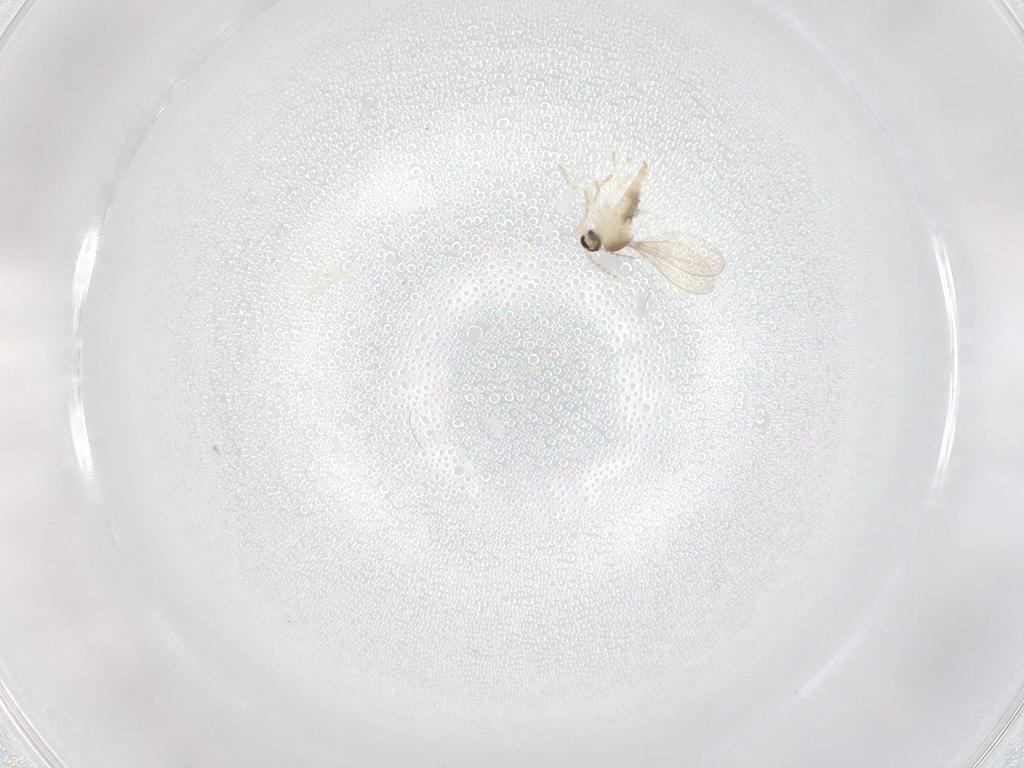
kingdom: Animalia
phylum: Arthropoda
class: Insecta
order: Diptera
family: Cecidomyiidae
